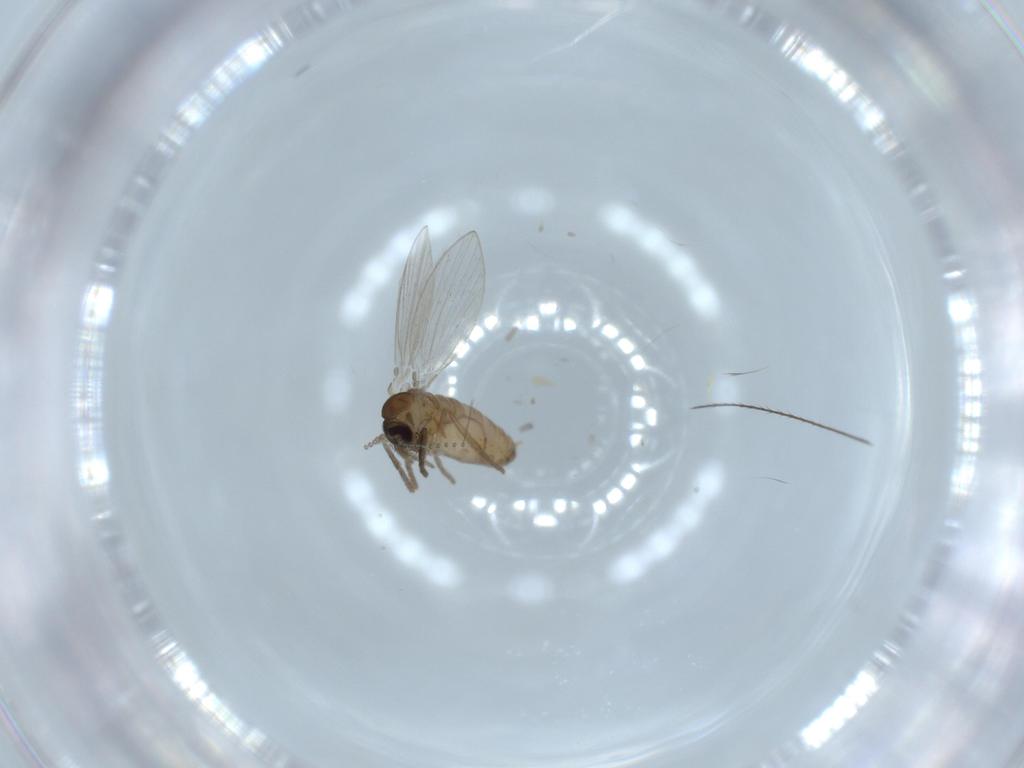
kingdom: Animalia
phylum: Arthropoda
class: Insecta
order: Diptera
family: Psychodidae
